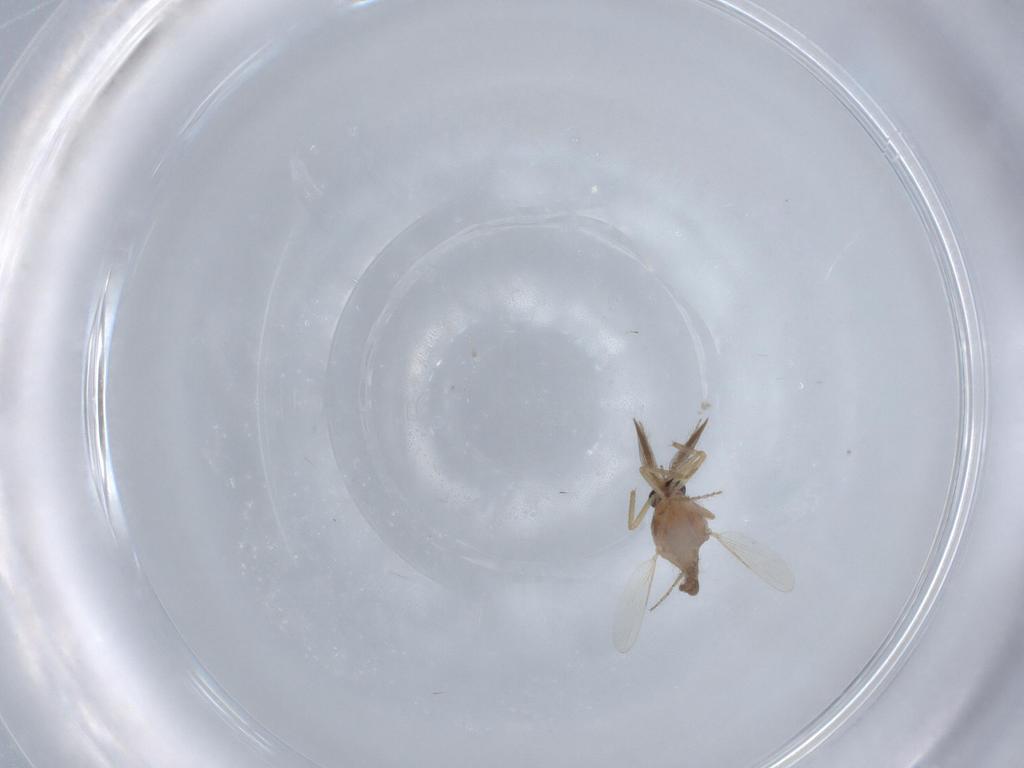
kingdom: Animalia
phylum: Arthropoda
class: Insecta
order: Diptera
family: Ceratopogonidae
